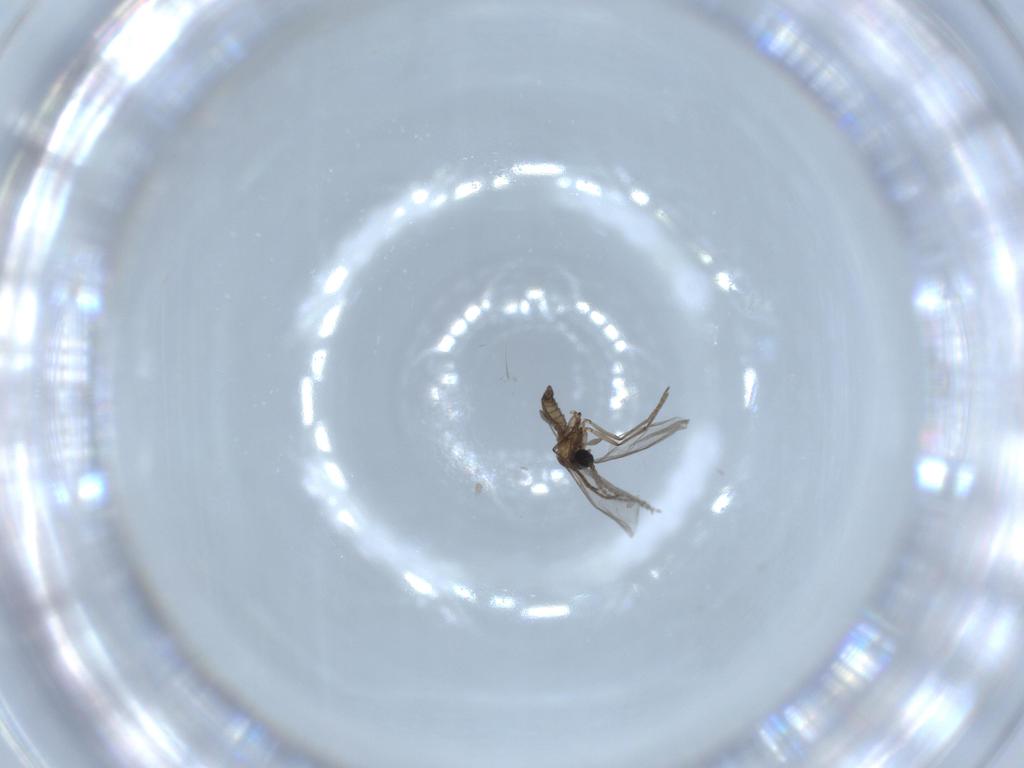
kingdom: Animalia
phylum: Arthropoda
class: Insecta
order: Diptera
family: Sciaridae
